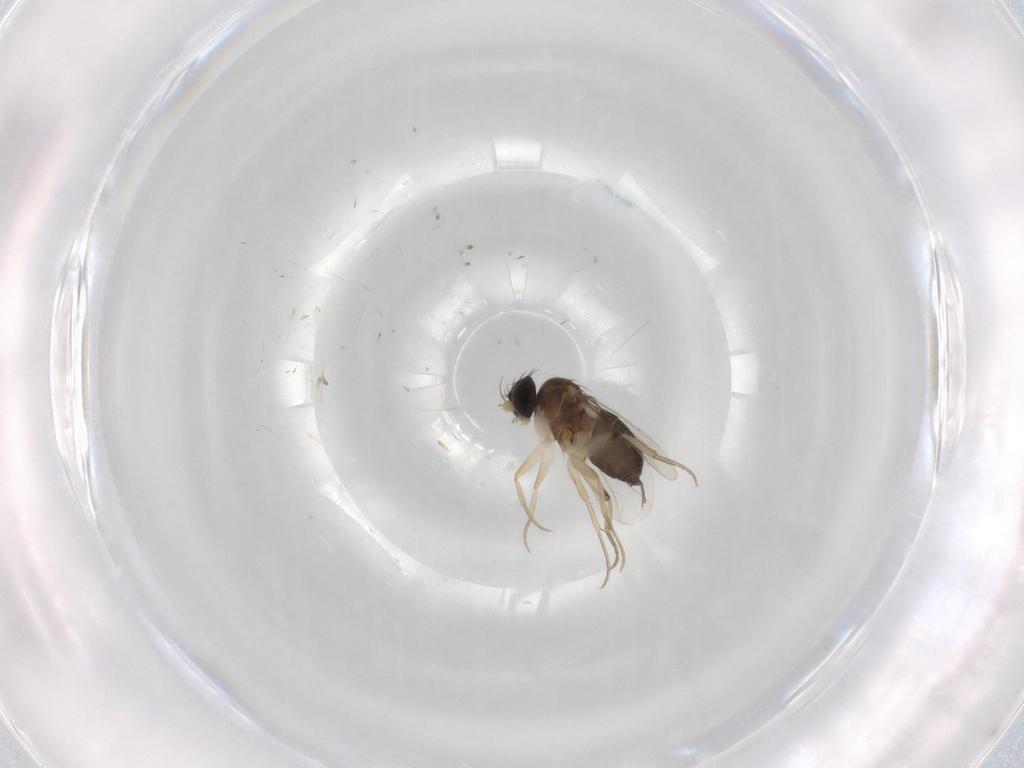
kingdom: Animalia
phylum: Arthropoda
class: Insecta
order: Diptera
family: Phoridae
